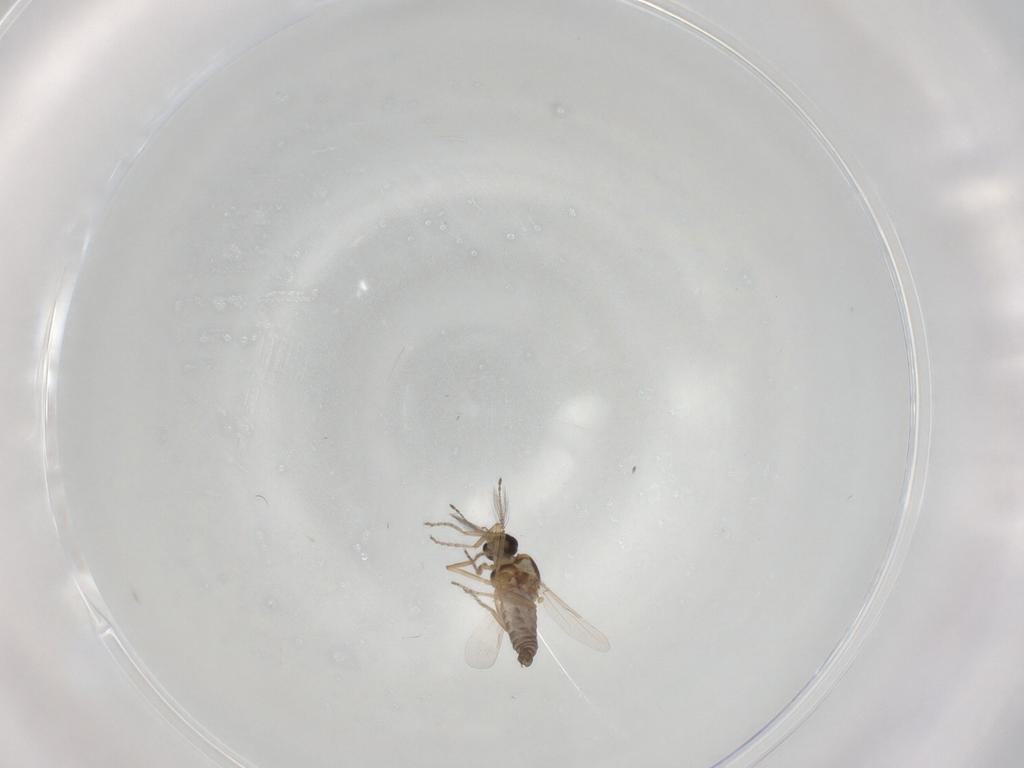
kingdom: Animalia
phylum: Arthropoda
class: Insecta
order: Diptera
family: Ceratopogonidae
